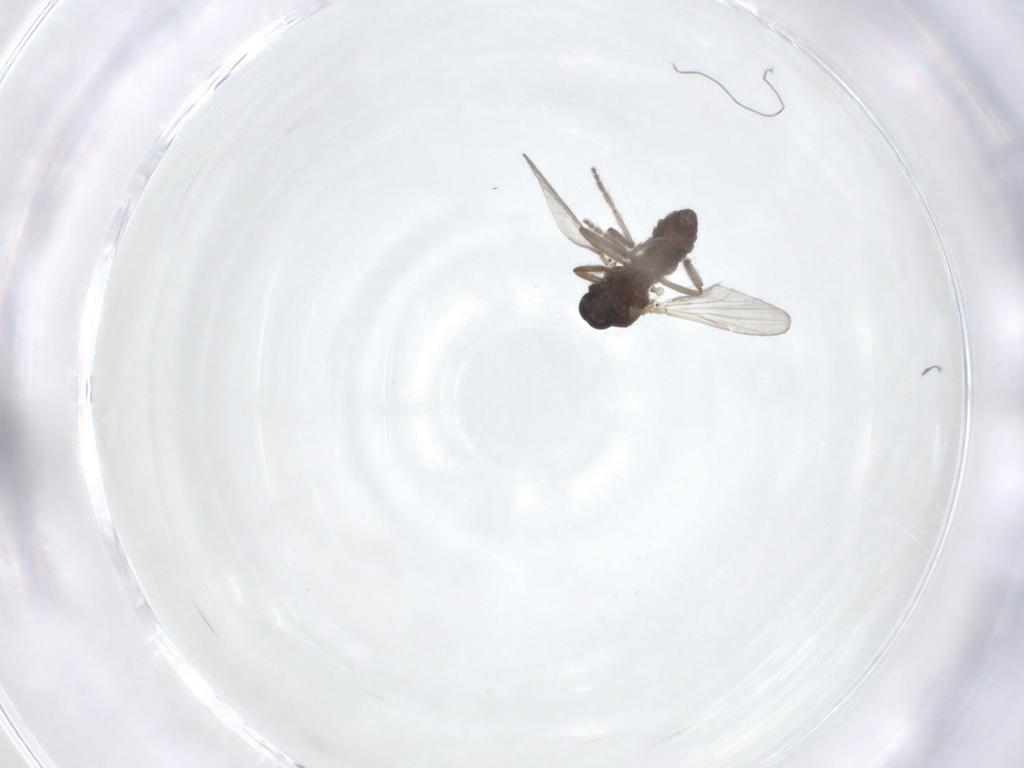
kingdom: Animalia
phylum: Arthropoda
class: Insecta
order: Diptera
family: Ceratopogonidae
